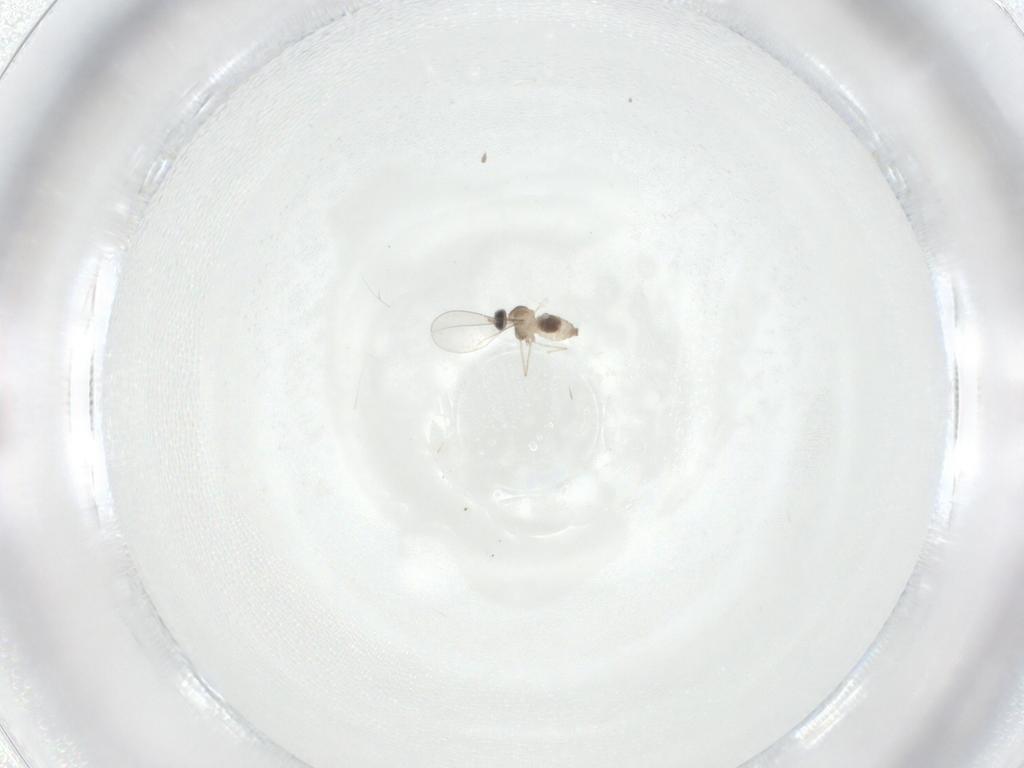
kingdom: Animalia
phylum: Arthropoda
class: Insecta
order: Diptera
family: Cecidomyiidae
